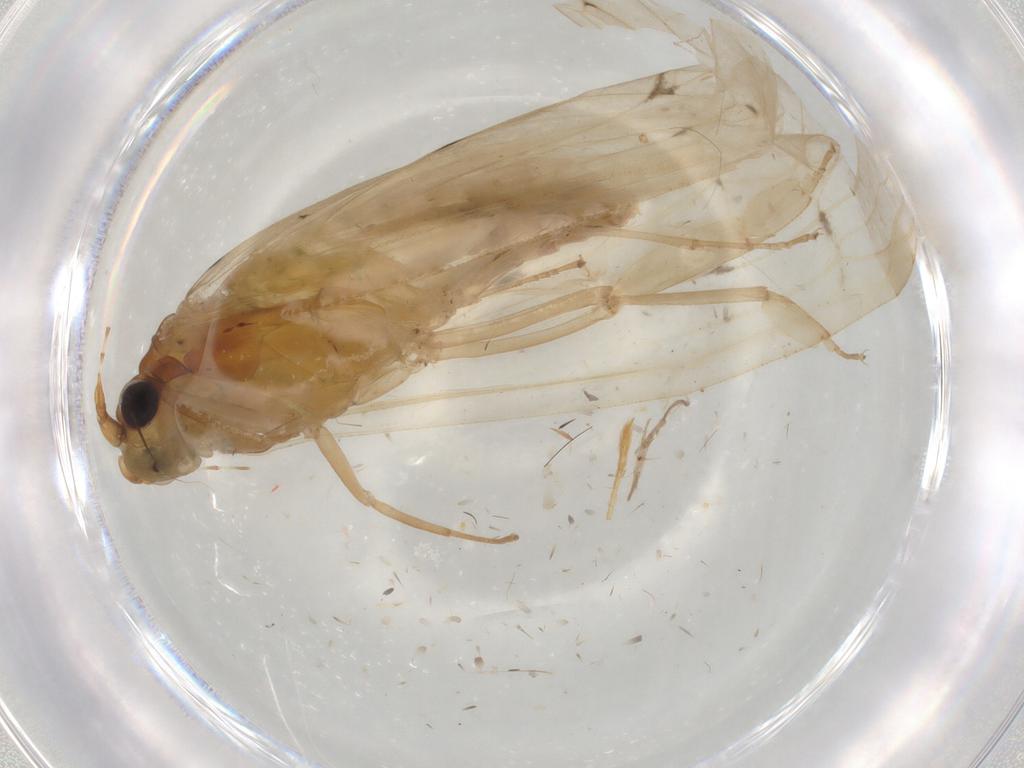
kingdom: Animalia
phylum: Arthropoda
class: Insecta
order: Trichoptera
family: Hydropsychidae
